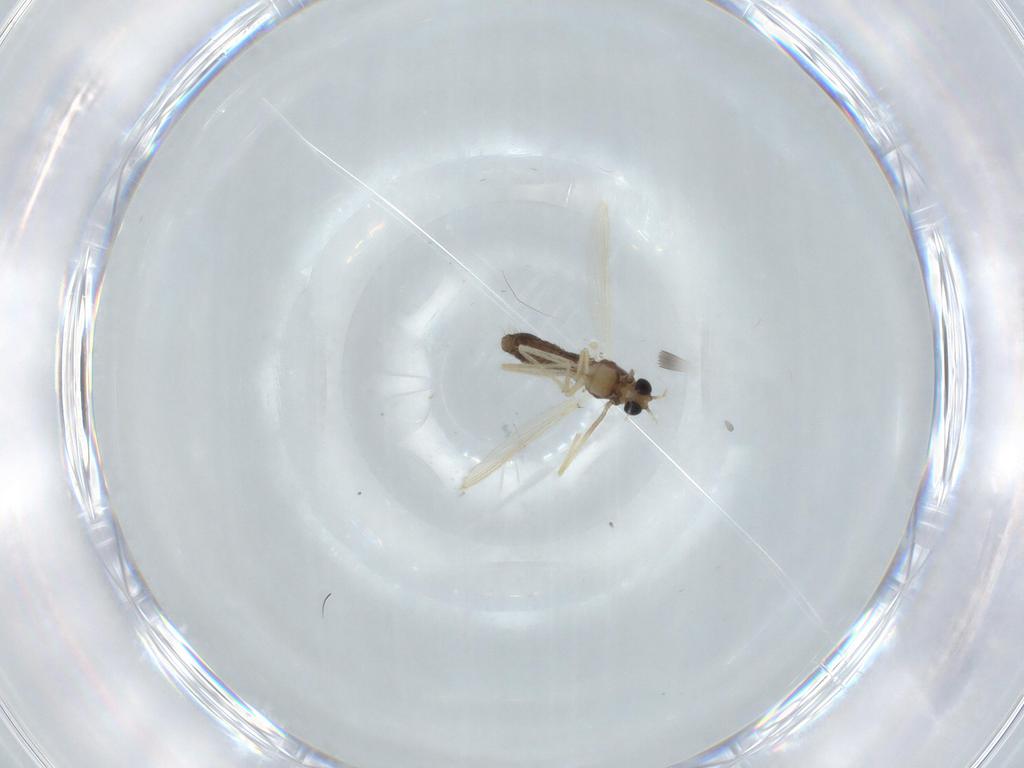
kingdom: Animalia
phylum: Arthropoda
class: Insecta
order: Diptera
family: Chironomidae
